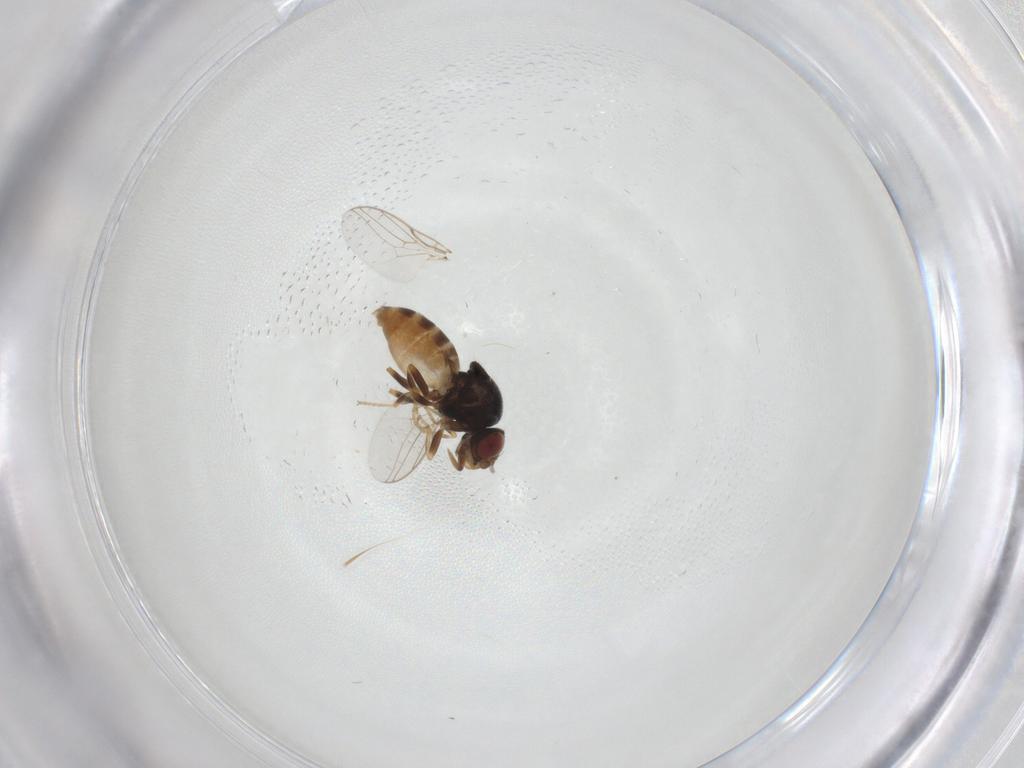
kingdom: Animalia
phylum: Arthropoda
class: Insecta
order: Diptera
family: Chloropidae
